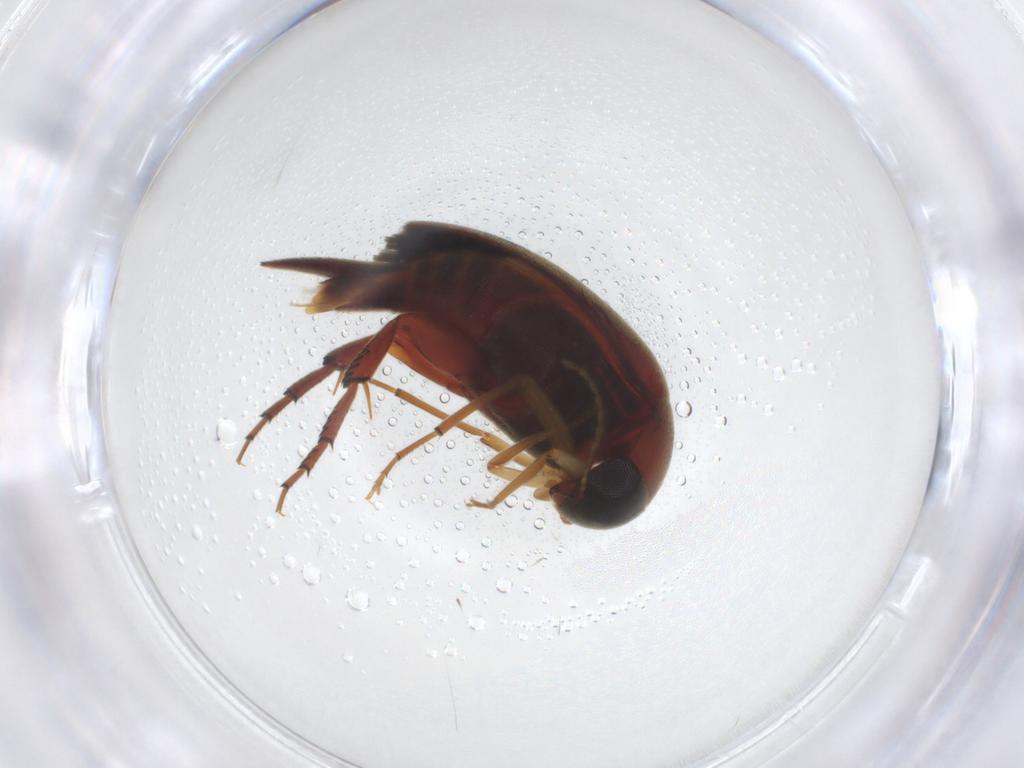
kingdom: Animalia
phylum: Arthropoda
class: Insecta
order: Coleoptera
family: Mordellidae
